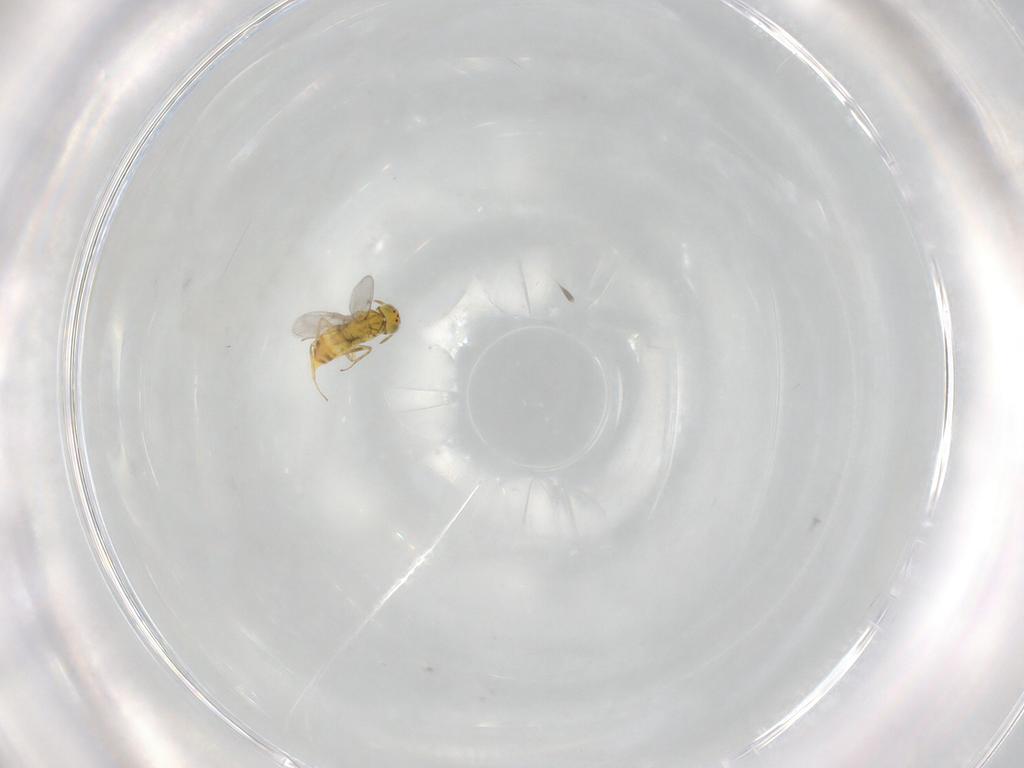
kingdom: Animalia
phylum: Arthropoda
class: Insecta
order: Hymenoptera
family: Aphelinidae
